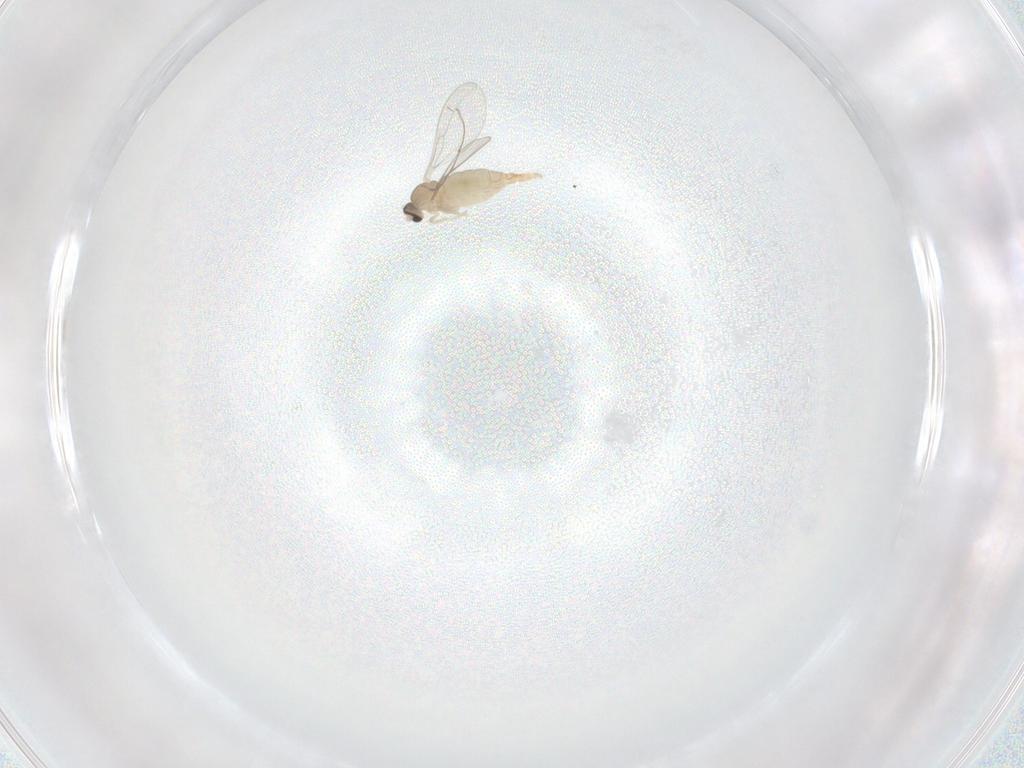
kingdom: Animalia
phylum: Arthropoda
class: Insecta
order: Diptera
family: Cecidomyiidae
